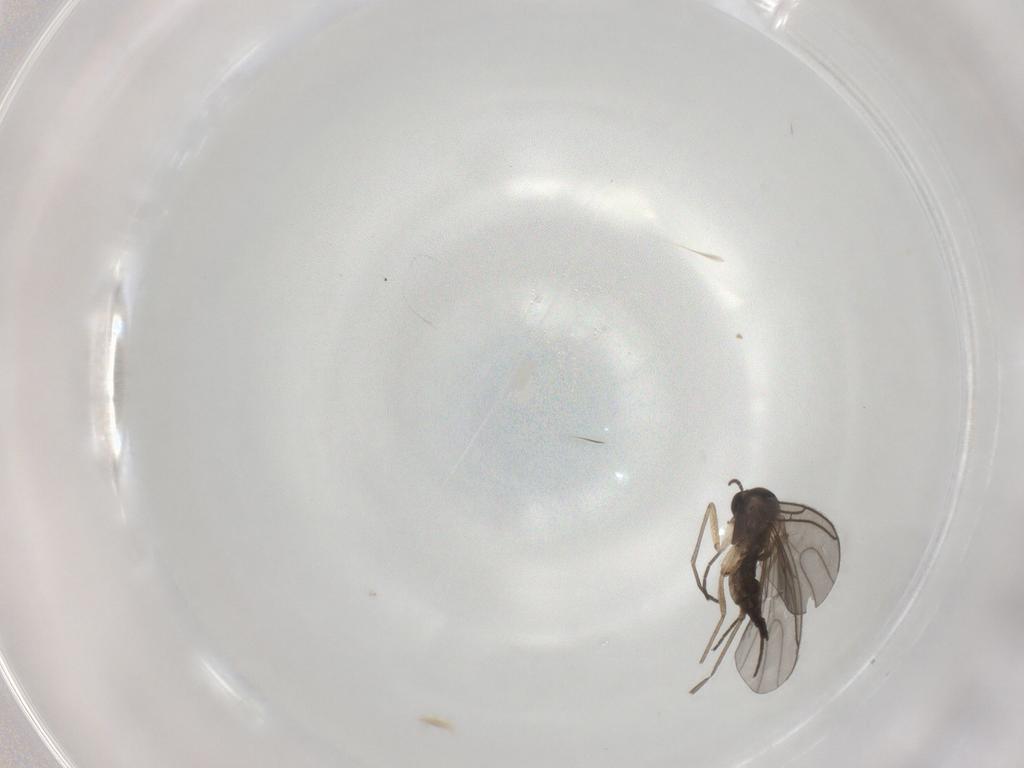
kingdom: Animalia
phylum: Arthropoda
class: Insecta
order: Diptera
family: Sciaridae
